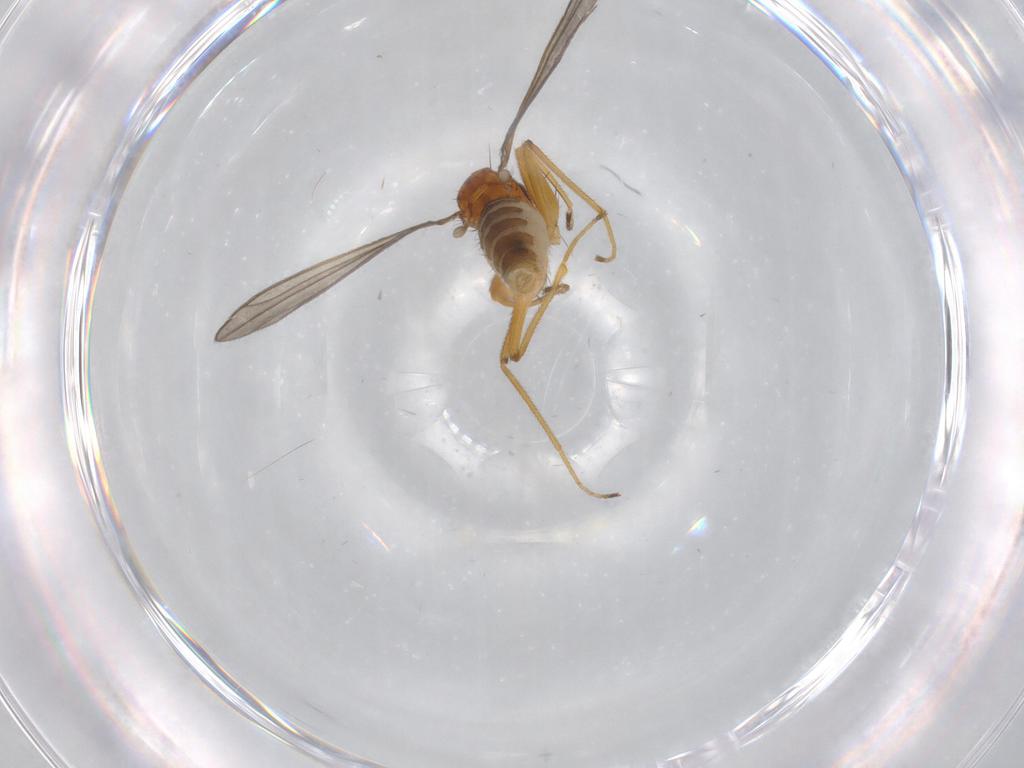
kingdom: Animalia
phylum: Arthropoda
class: Insecta
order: Diptera
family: Empididae
